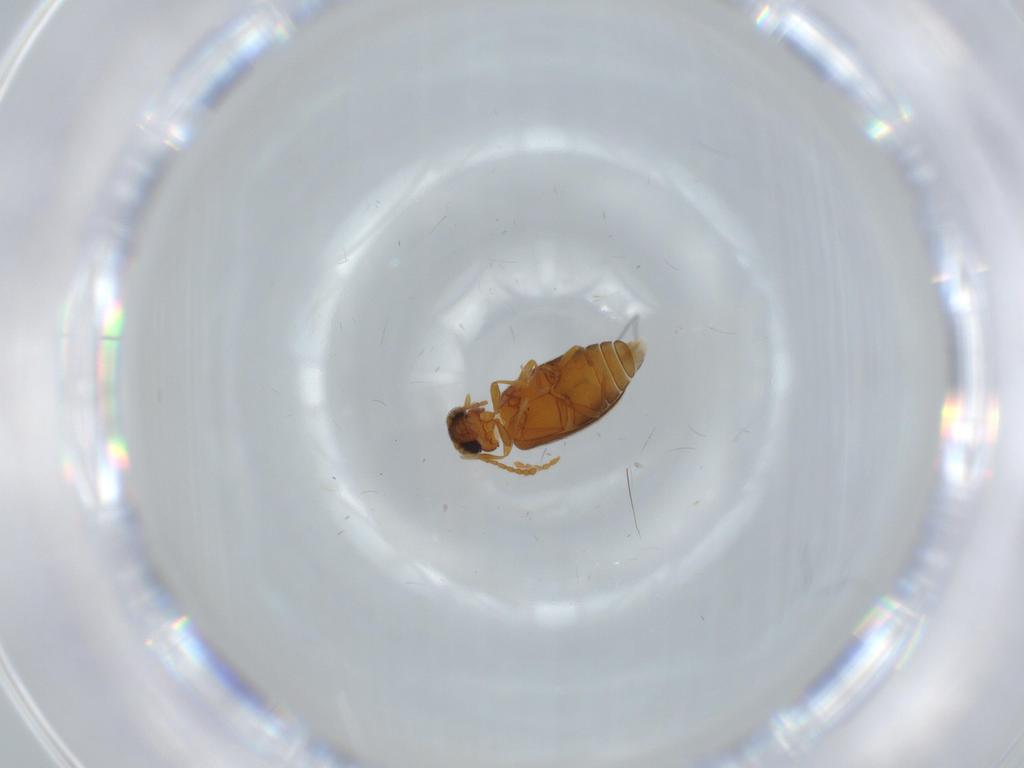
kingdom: Animalia
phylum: Arthropoda
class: Insecta
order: Coleoptera
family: Aderidae
